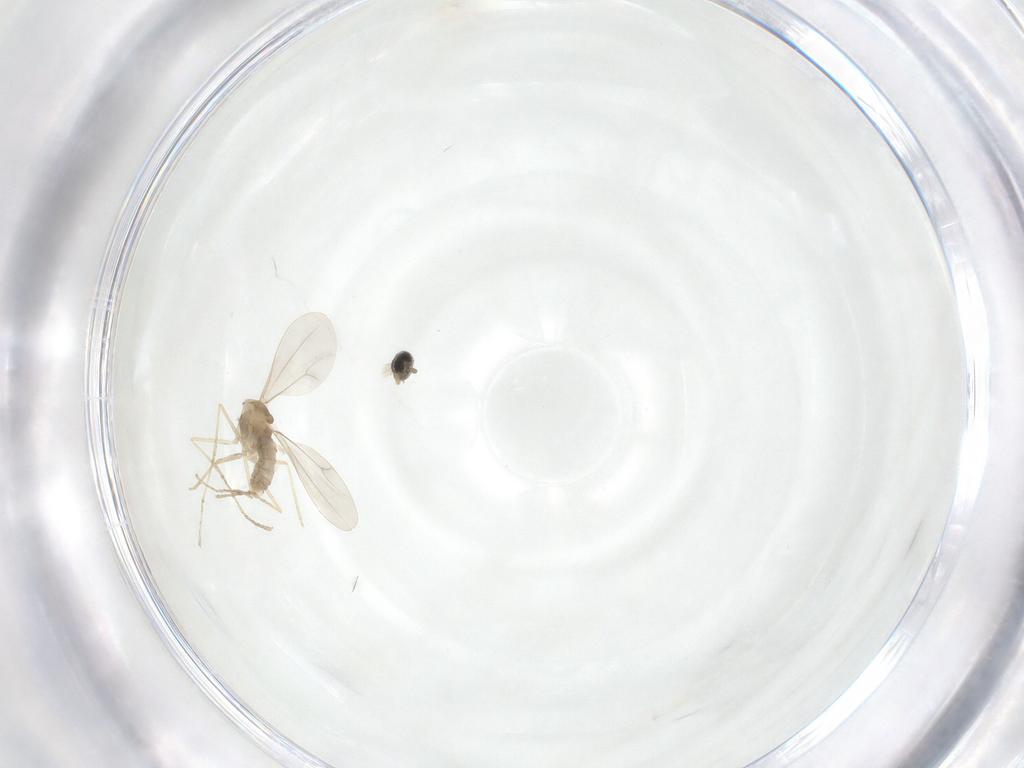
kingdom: Animalia
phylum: Arthropoda
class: Insecta
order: Diptera
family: Cecidomyiidae
